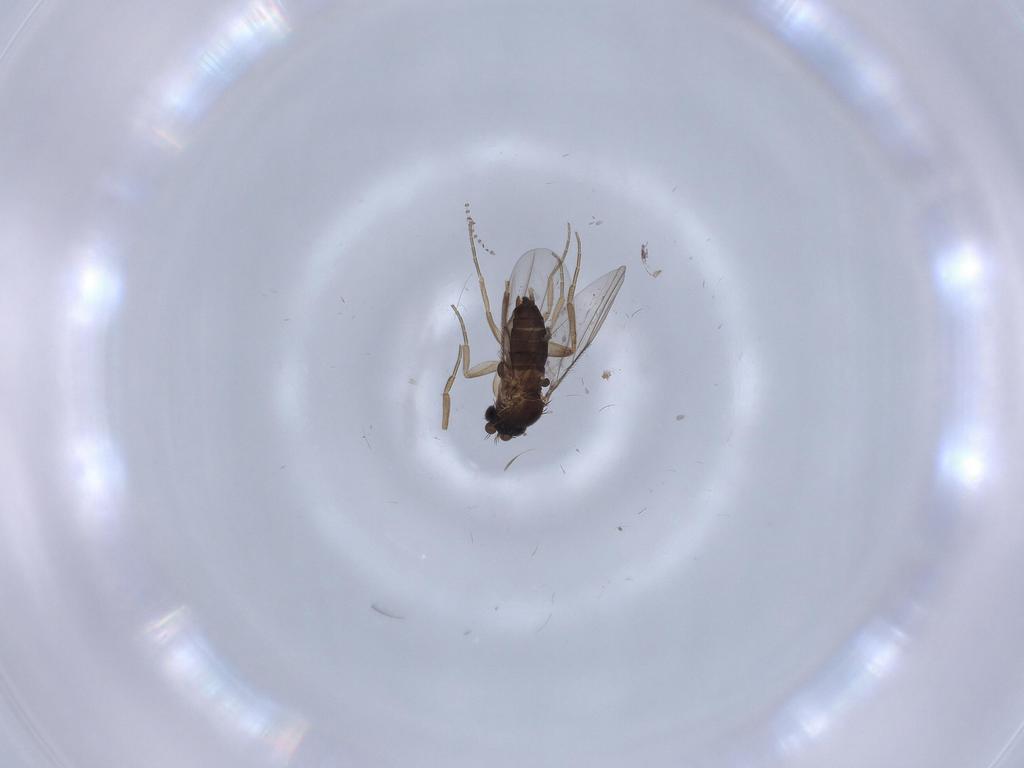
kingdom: Animalia
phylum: Arthropoda
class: Insecta
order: Diptera
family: Phoridae
